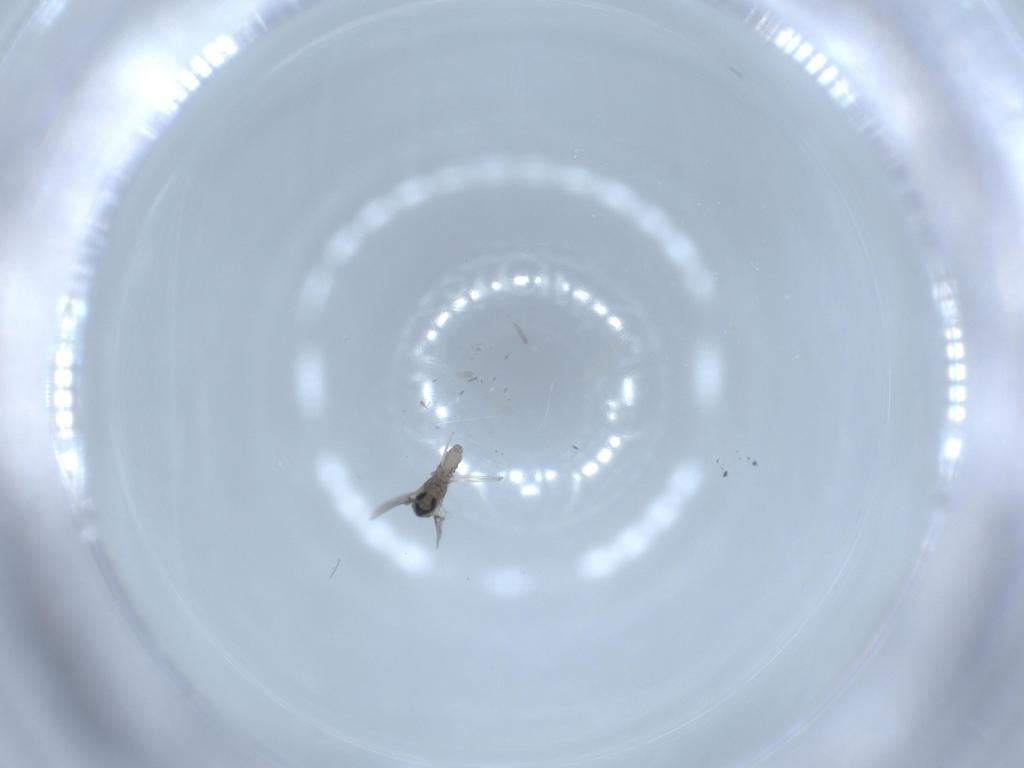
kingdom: Animalia
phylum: Arthropoda
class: Insecta
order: Diptera
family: Cecidomyiidae
